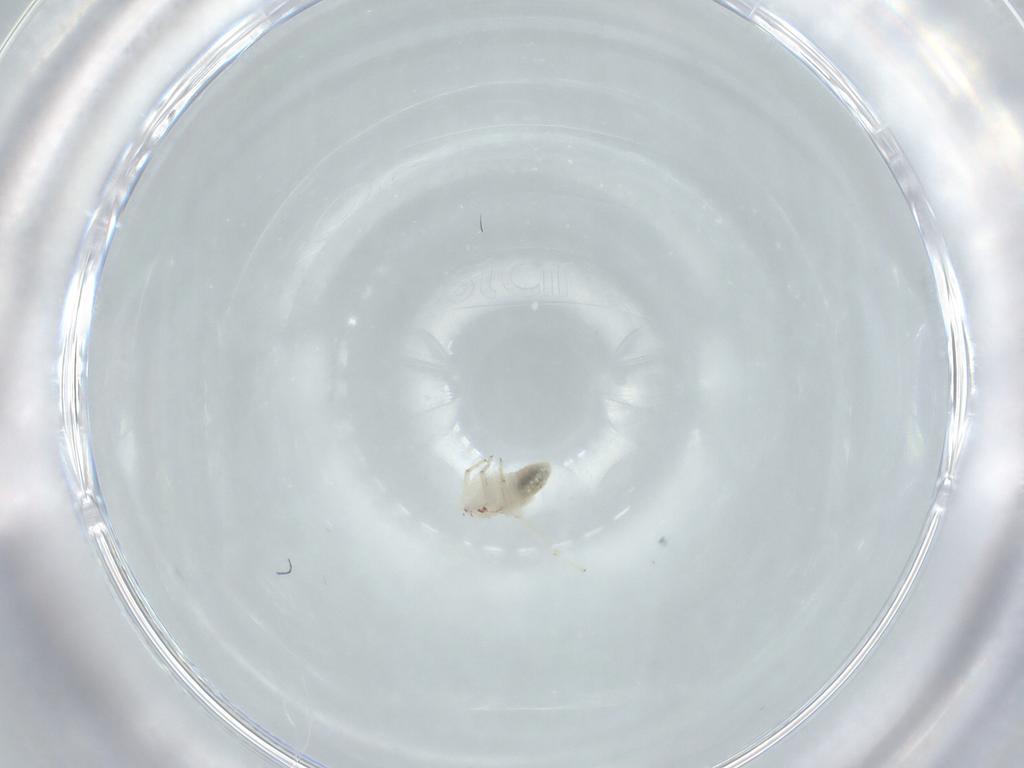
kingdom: Animalia
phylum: Arthropoda
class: Insecta
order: Psocodea
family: Lepidopsocidae
